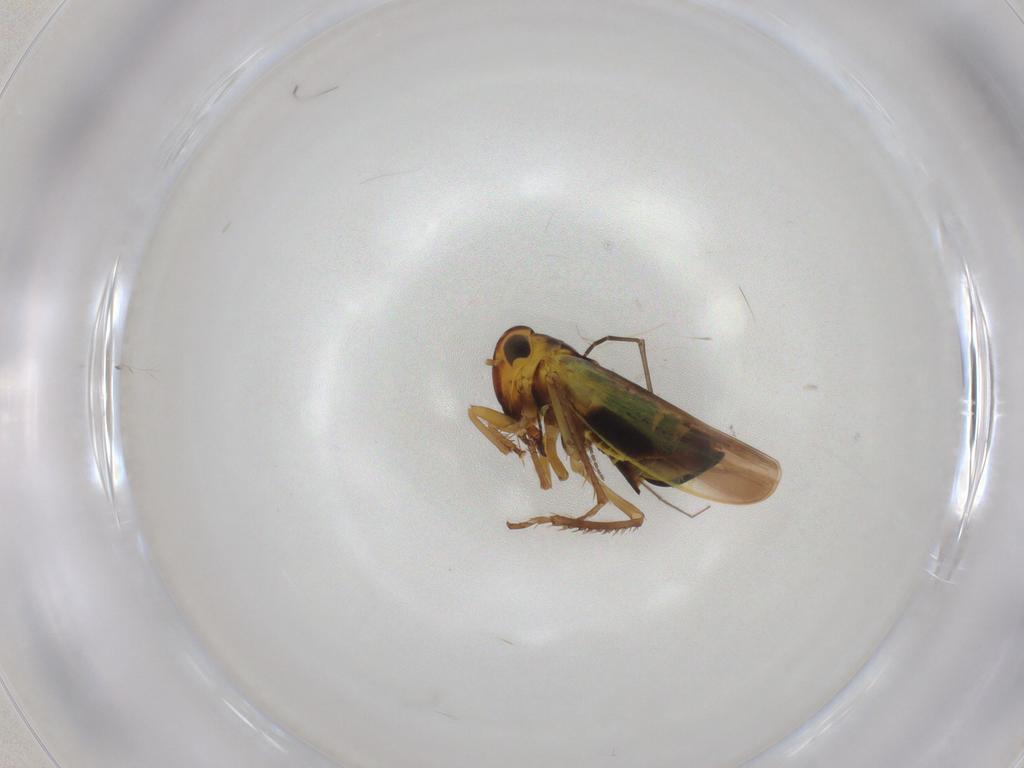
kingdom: Animalia
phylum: Arthropoda
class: Insecta
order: Hemiptera
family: Cicadellidae
